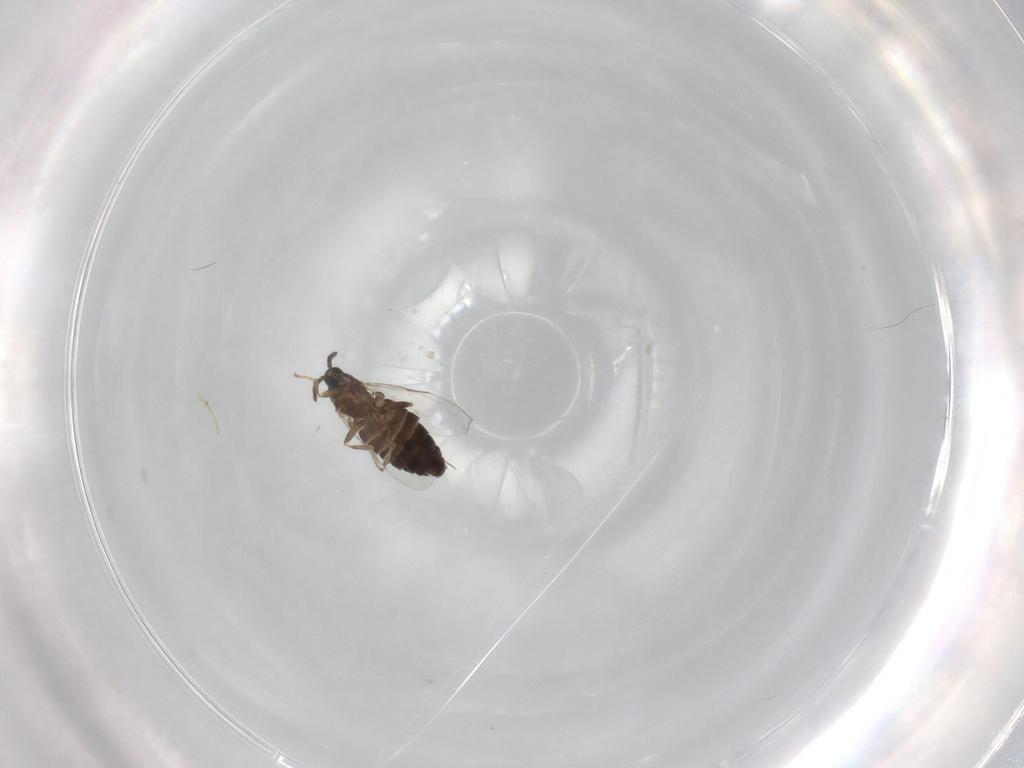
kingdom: Animalia
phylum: Arthropoda
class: Insecta
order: Diptera
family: Scatopsidae
